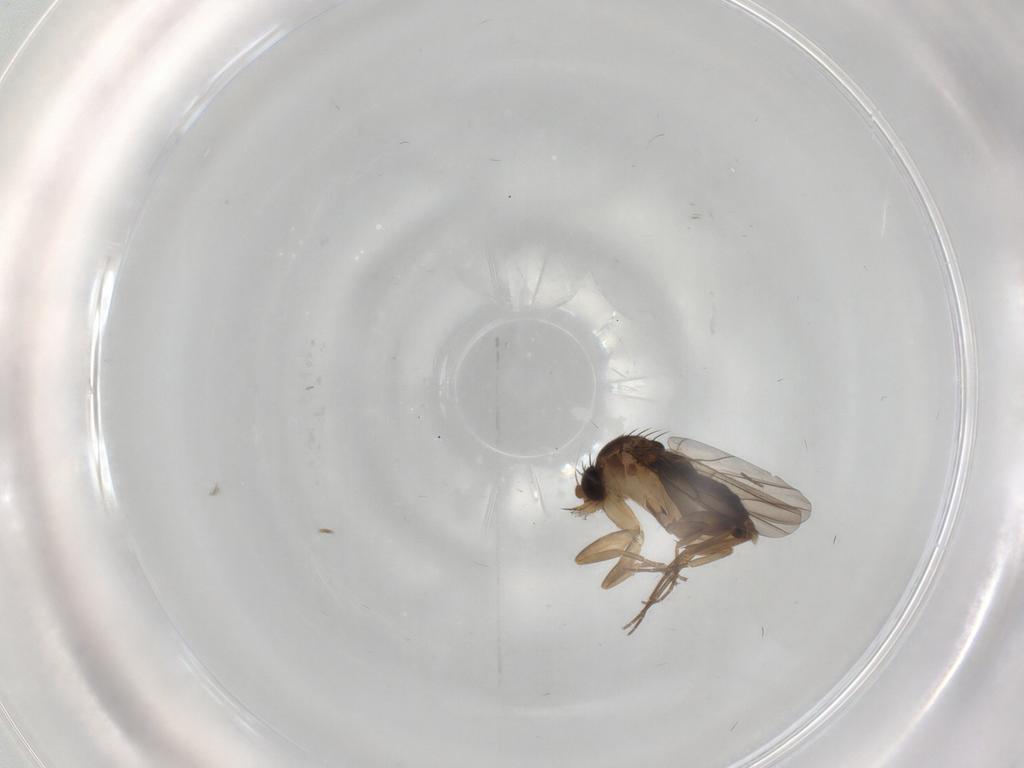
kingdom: Animalia
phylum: Arthropoda
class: Insecta
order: Diptera
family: Phoridae
